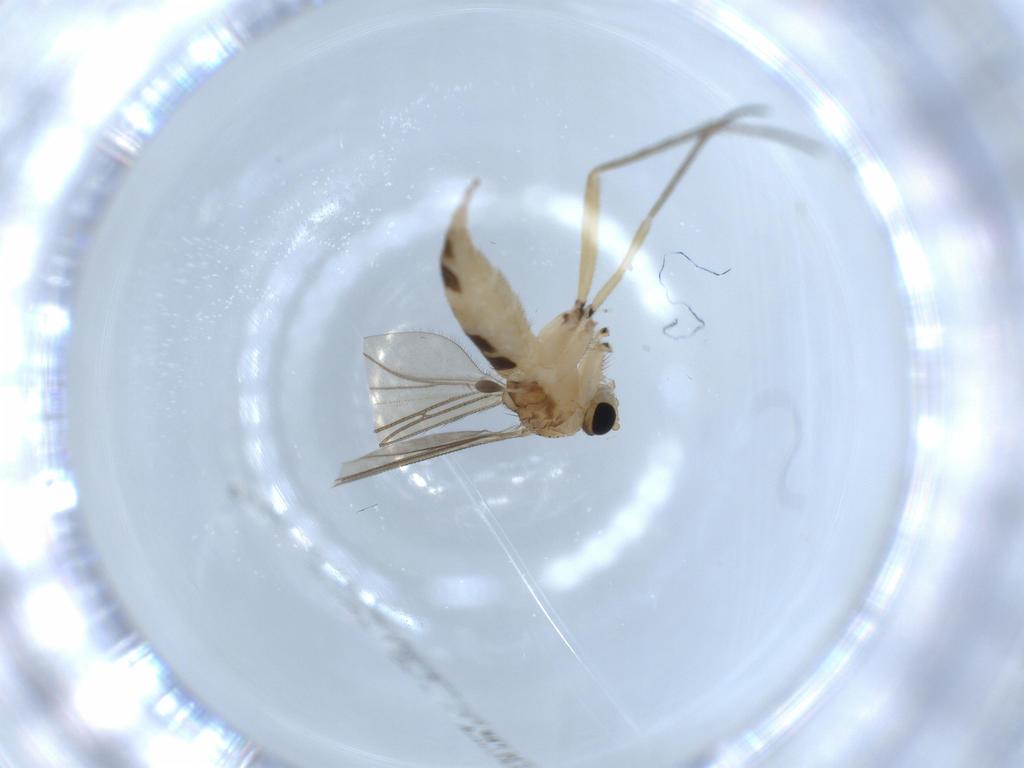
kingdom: Animalia
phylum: Arthropoda
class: Insecta
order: Diptera
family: Sciaridae
